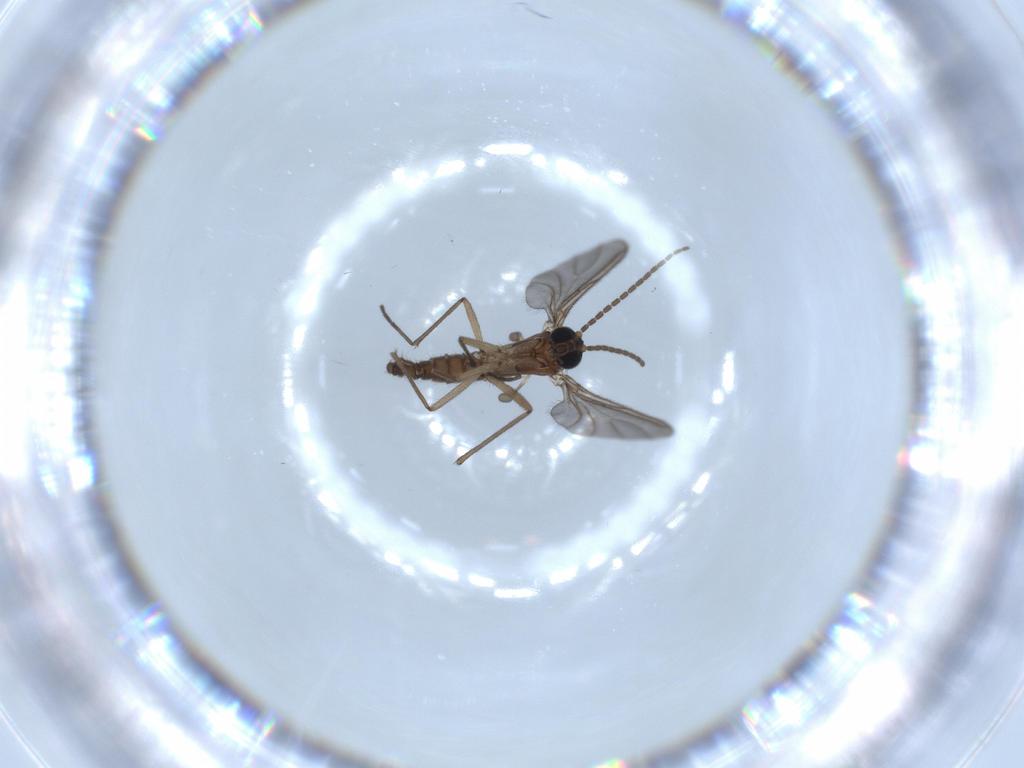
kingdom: Animalia
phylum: Arthropoda
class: Insecta
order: Diptera
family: Sciaridae
